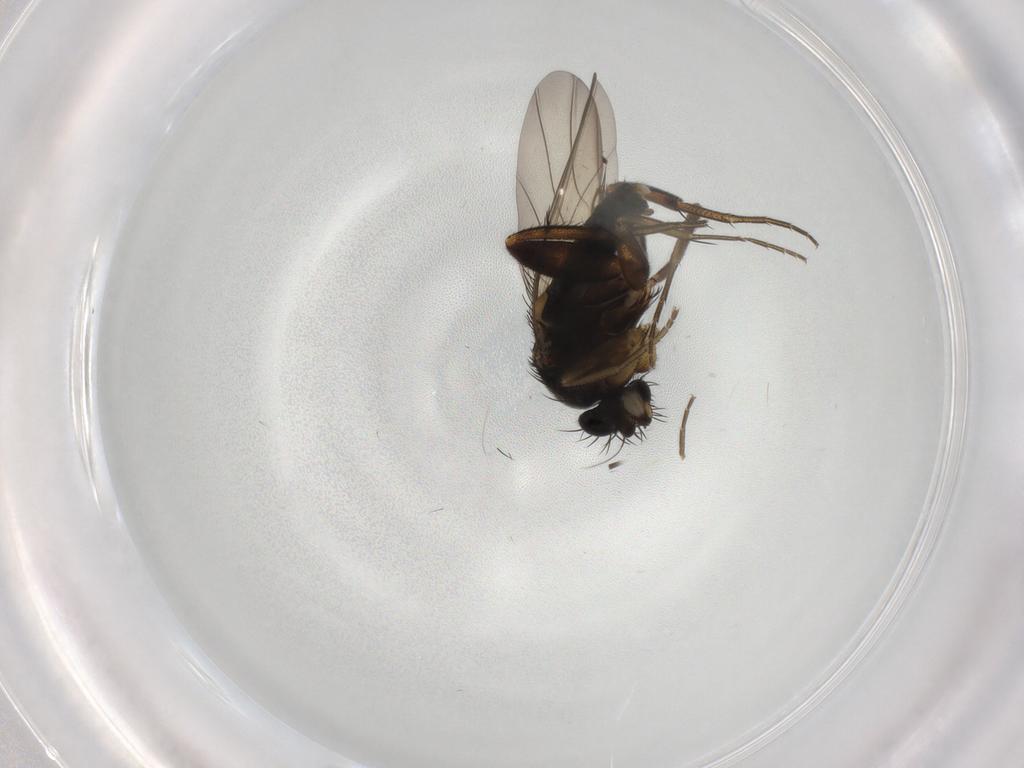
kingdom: Animalia
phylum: Arthropoda
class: Insecta
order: Diptera
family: Phoridae
